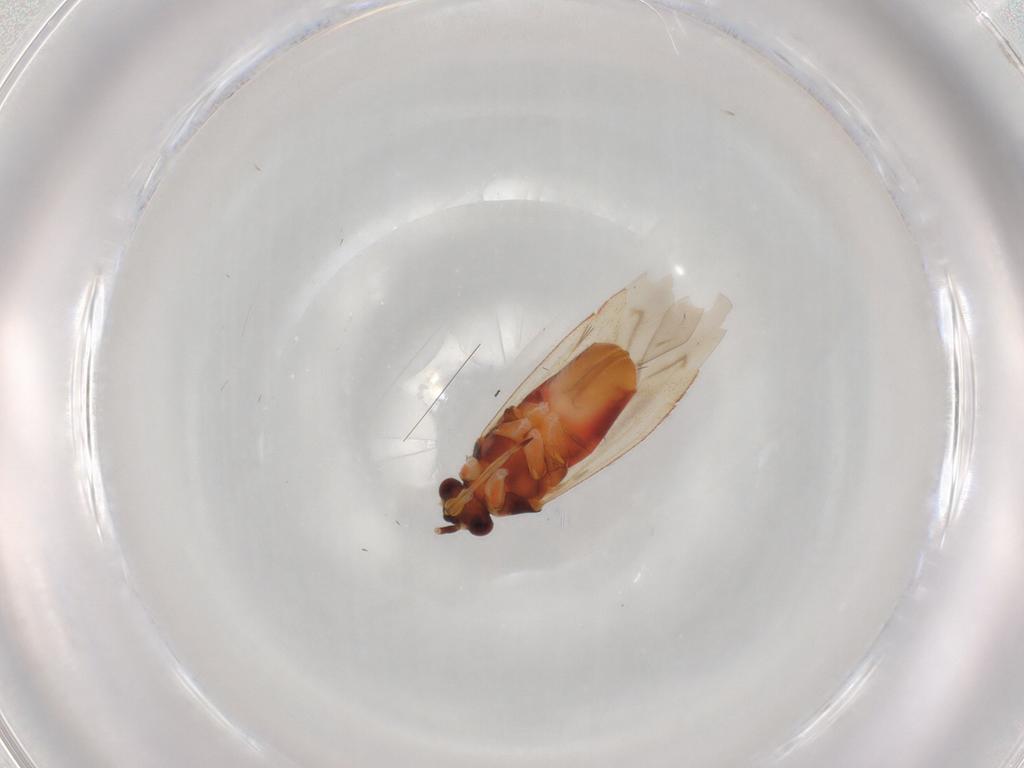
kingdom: Animalia
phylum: Arthropoda
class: Insecta
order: Hemiptera
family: Miridae
